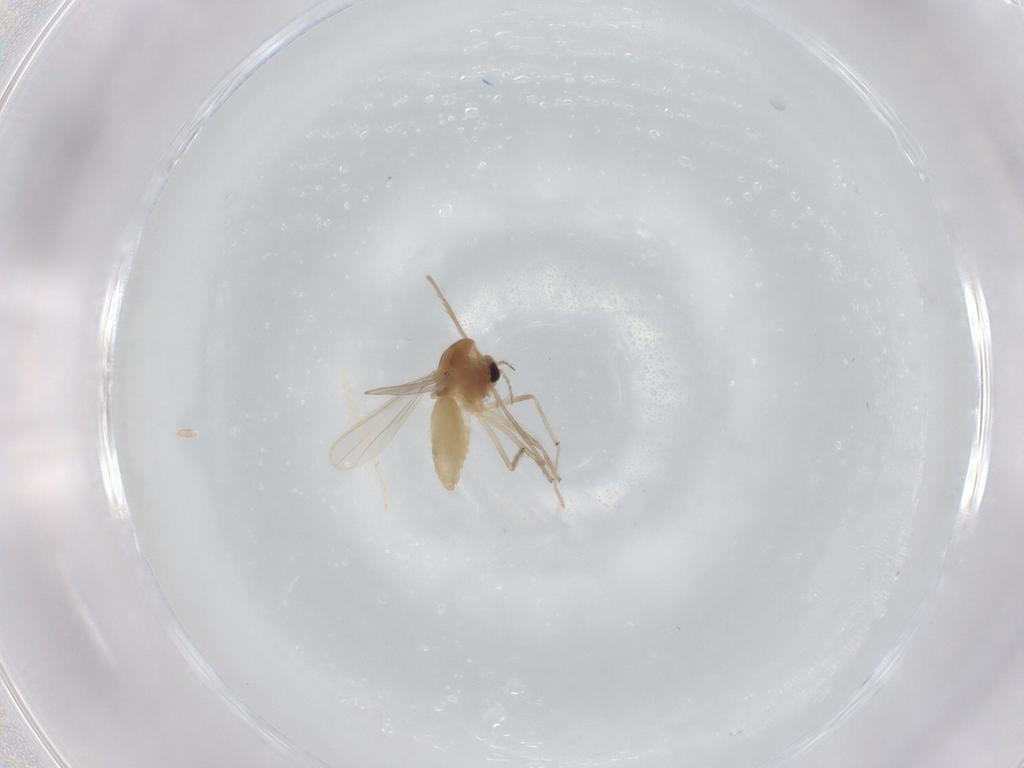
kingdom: Animalia
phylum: Arthropoda
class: Insecta
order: Diptera
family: Chironomidae
